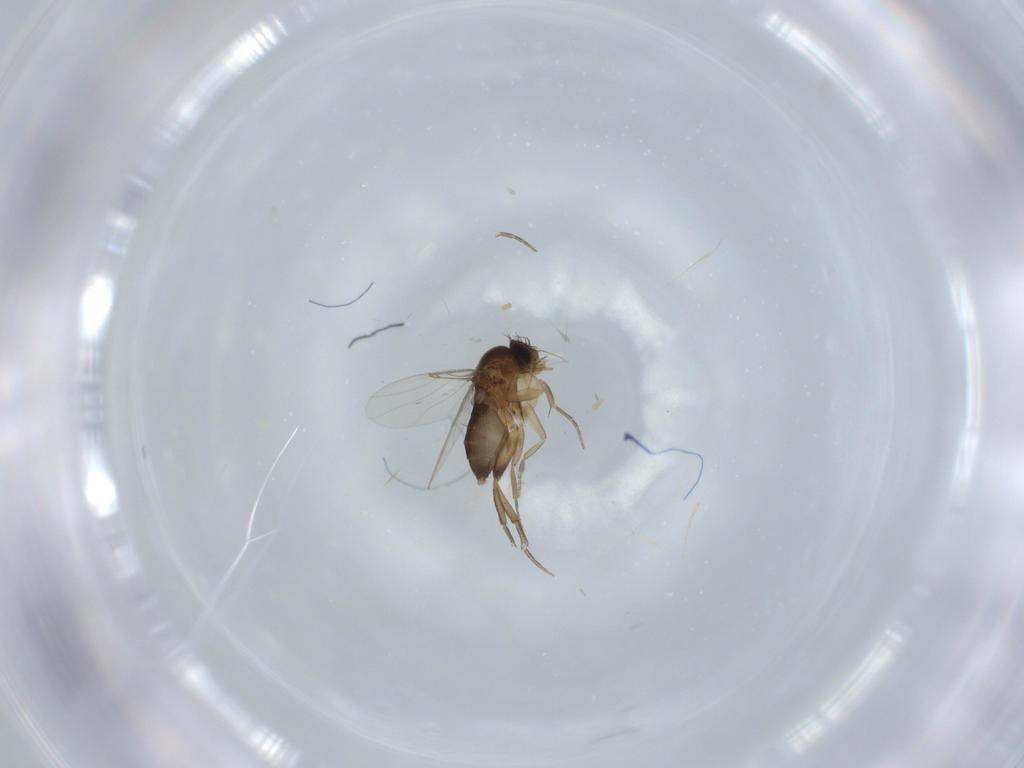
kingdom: Animalia
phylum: Arthropoda
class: Insecta
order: Diptera
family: Phoridae
